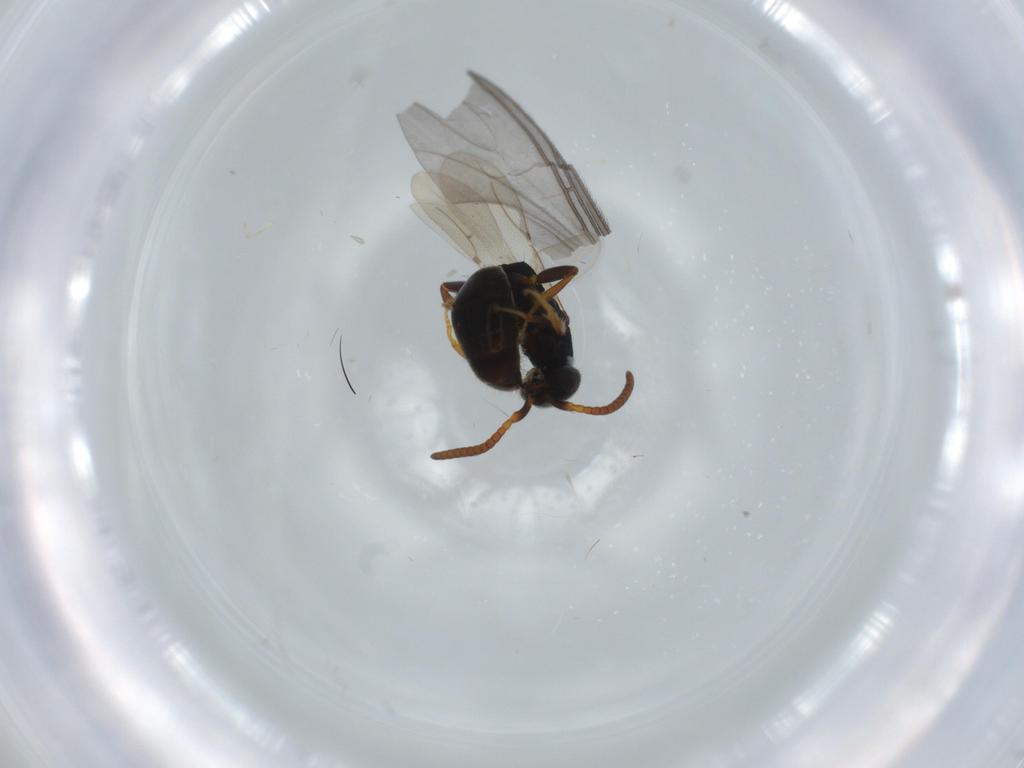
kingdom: Animalia
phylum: Arthropoda
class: Insecta
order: Hymenoptera
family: Bethylidae
